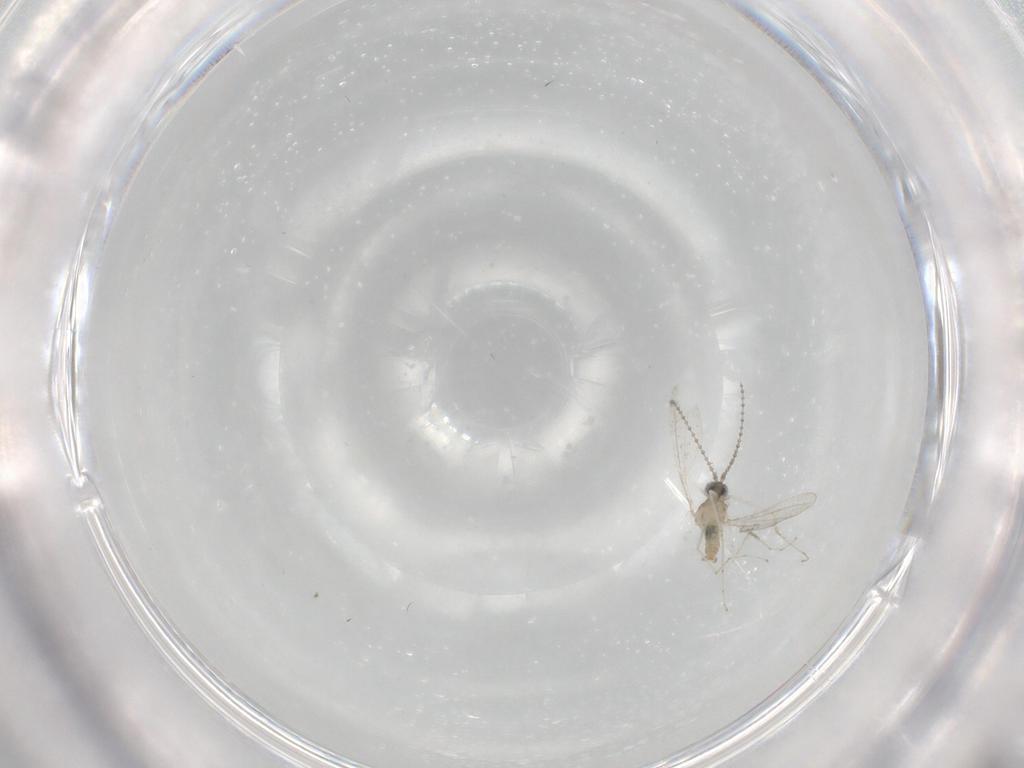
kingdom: Animalia
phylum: Arthropoda
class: Insecta
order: Diptera
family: Cecidomyiidae
